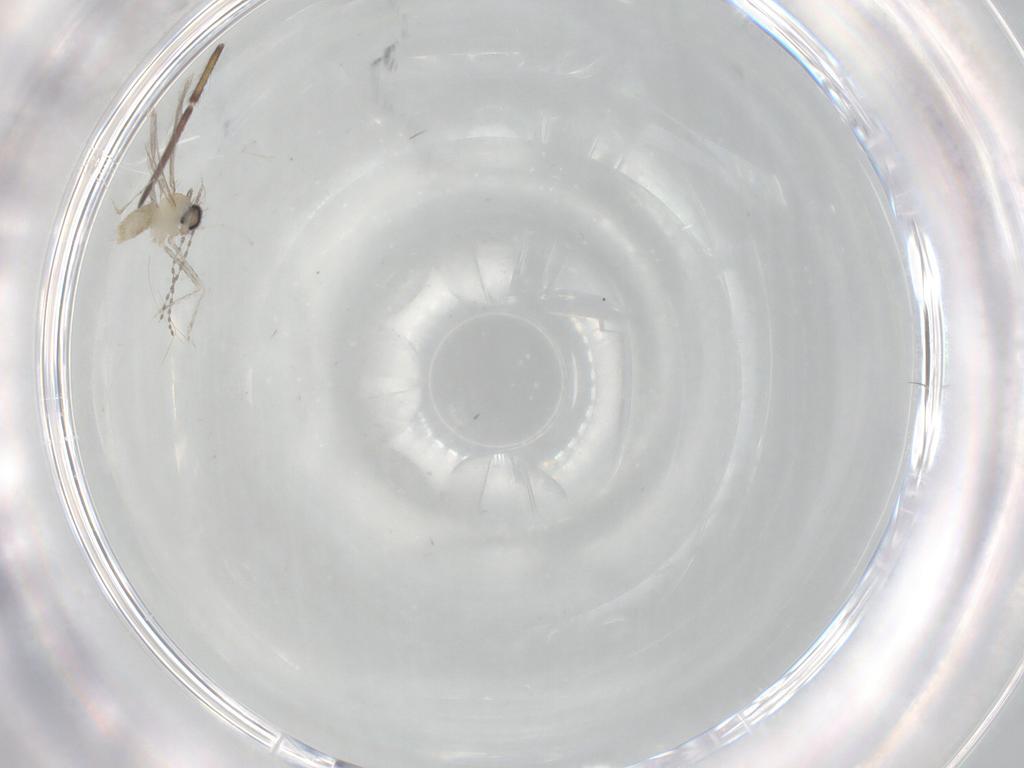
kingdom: Animalia
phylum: Arthropoda
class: Insecta
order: Diptera
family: Cecidomyiidae
